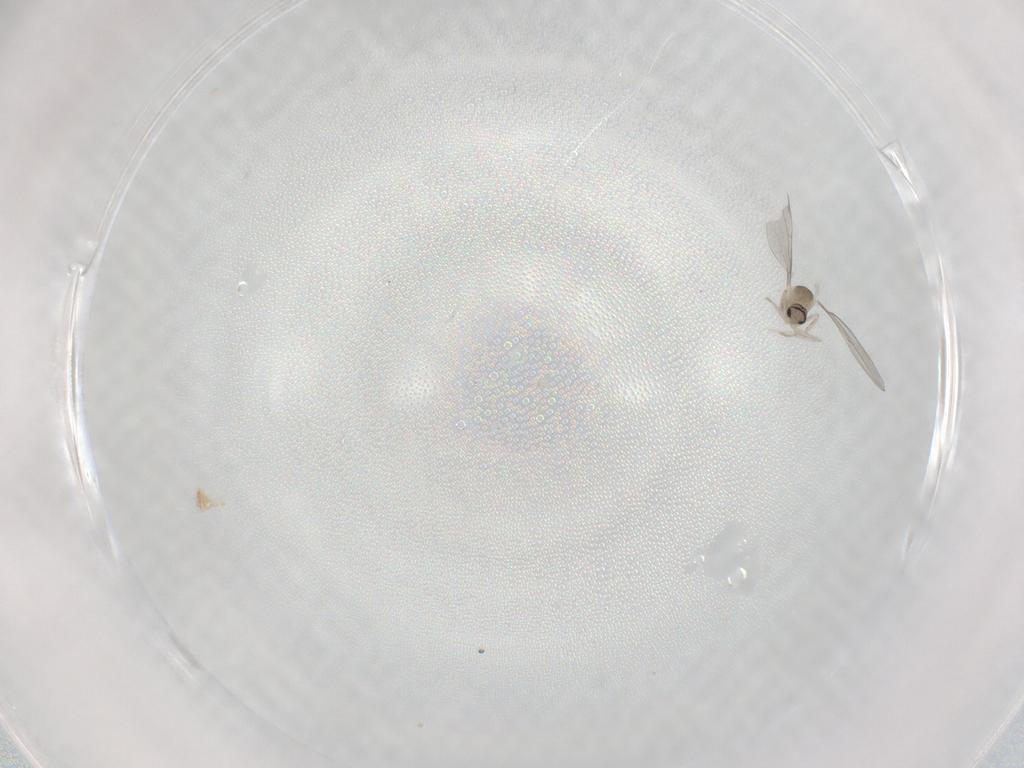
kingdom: Animalia
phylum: Arthropoda
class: Insecta
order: Diptera
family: Cecidomyiidae
